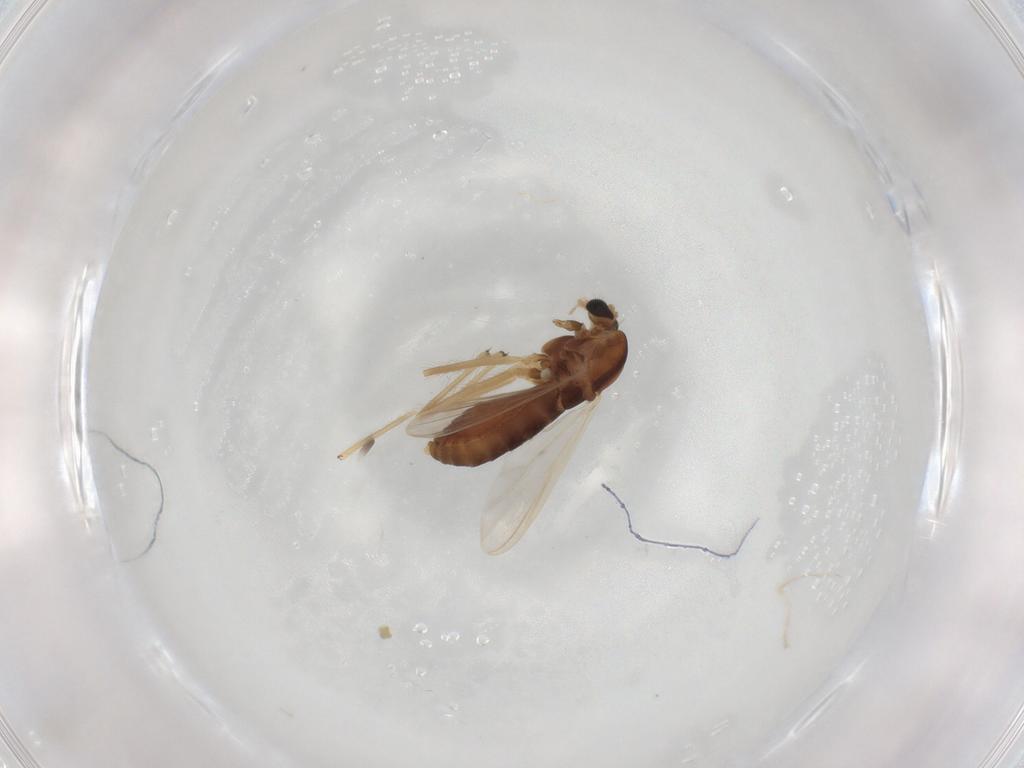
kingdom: Animalia
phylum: Arthropoda
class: Insecta
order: Diptera
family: Chironomidae
